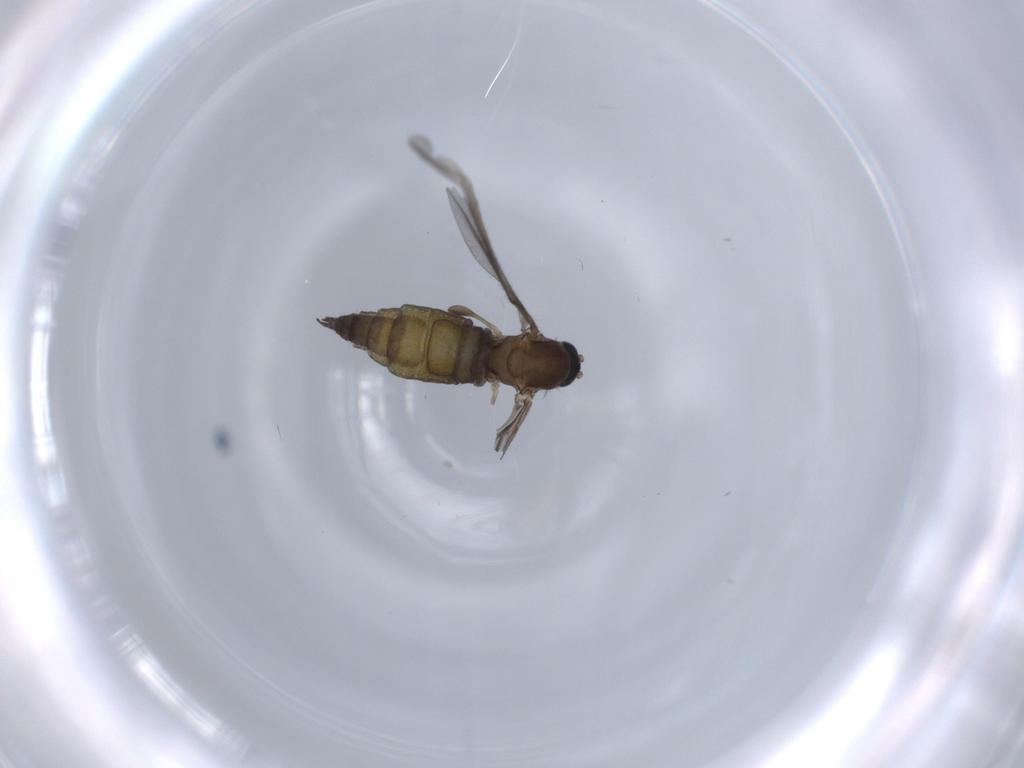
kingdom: Animalia
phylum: Arthropoda
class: Insecta
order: Diptera
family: Sciaridae
